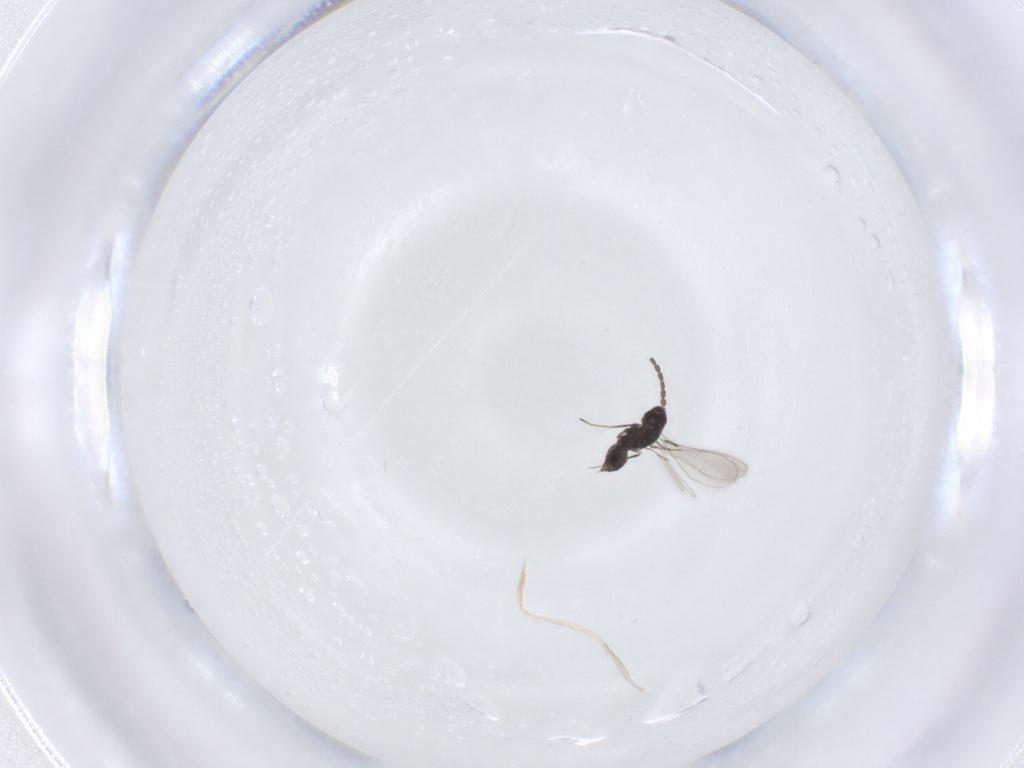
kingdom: Animalia
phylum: Arthropoda
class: Insecta
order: Hymenoptera
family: Mymaridae
